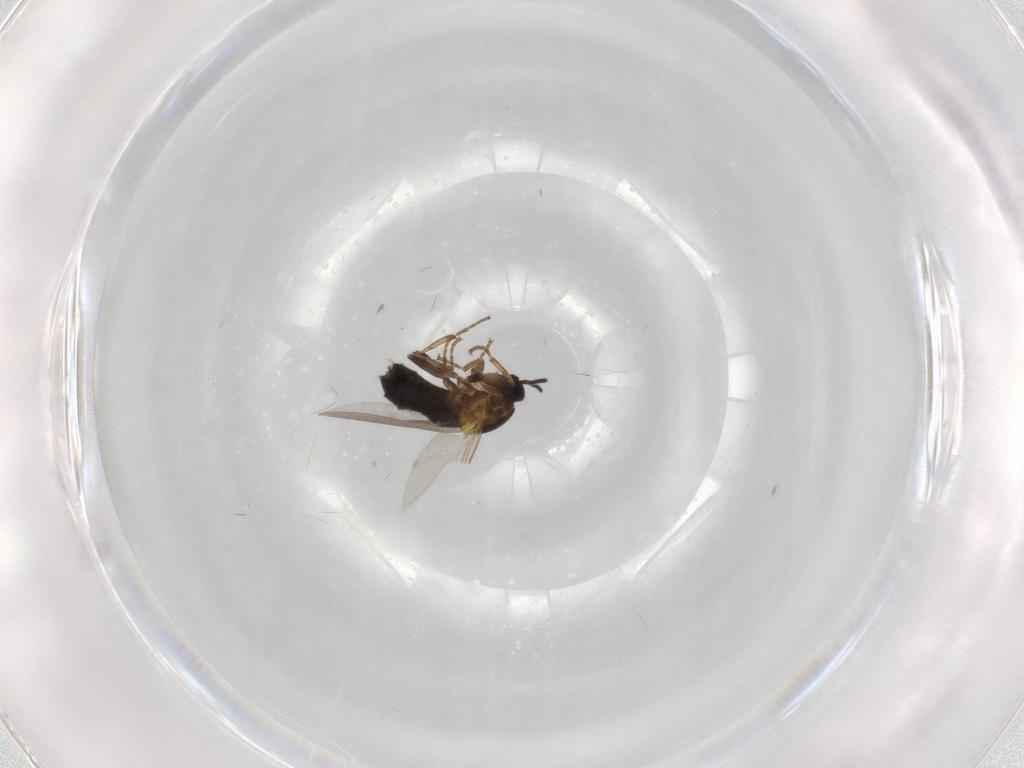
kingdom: Animalia
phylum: Arthropoda
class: Insecta
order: Diptera
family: Scatopsidae
